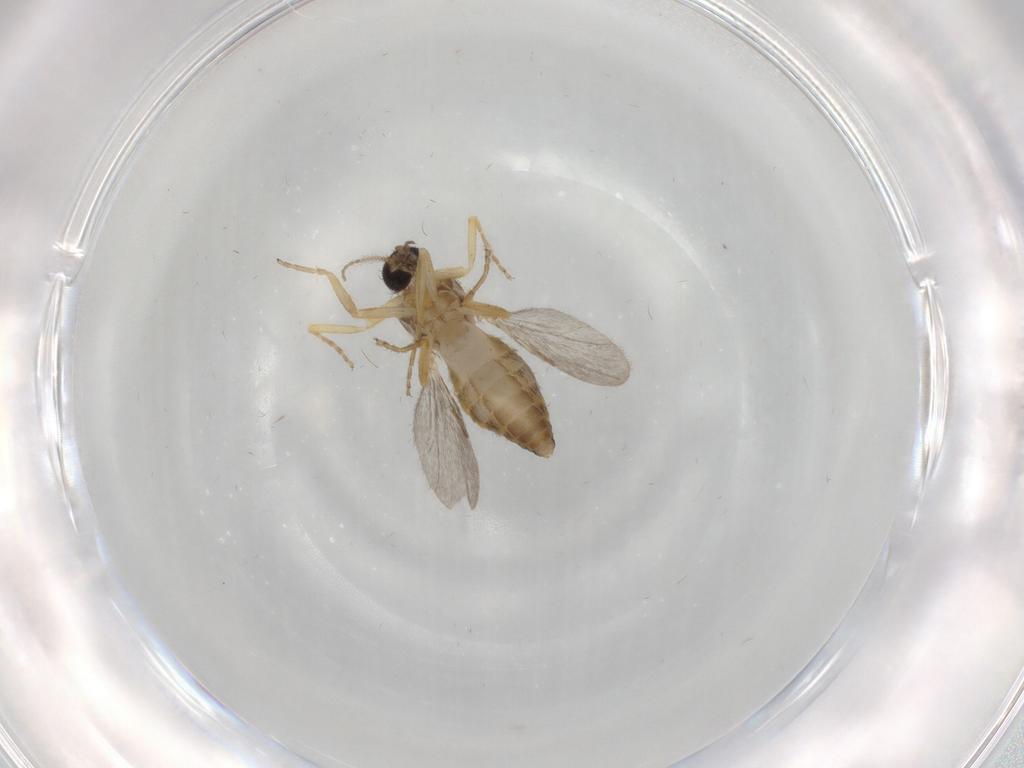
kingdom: Animalia
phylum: Arthropoda
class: Insecta
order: Diptera
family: Ceratopogonidae
